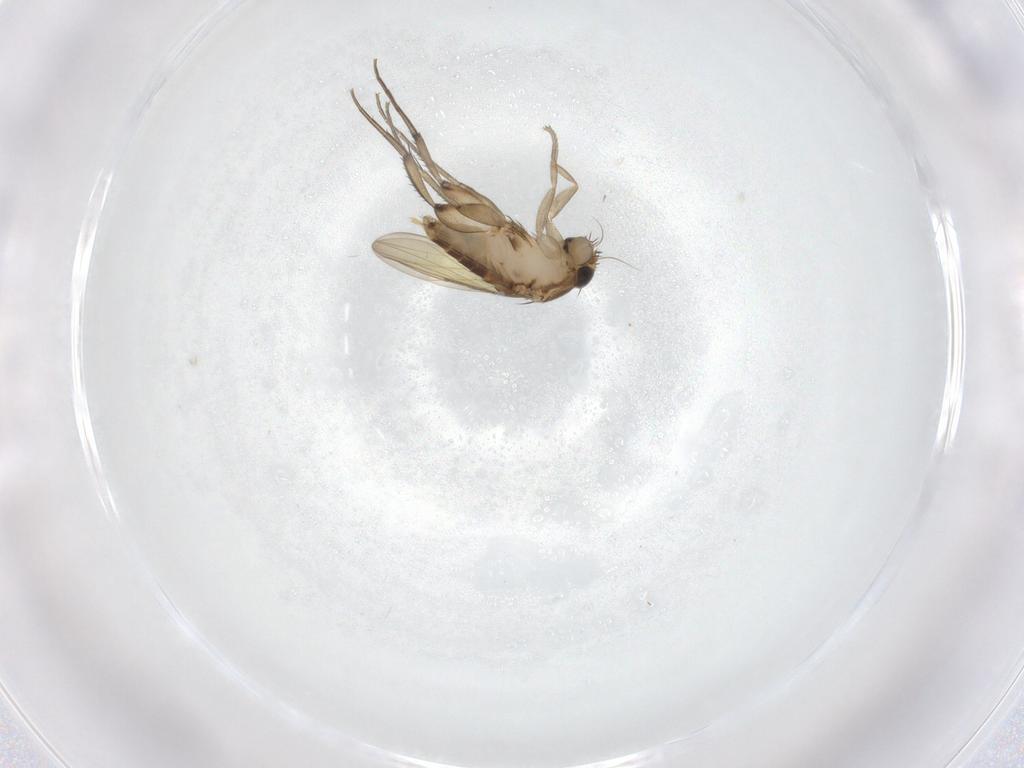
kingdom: Animalia
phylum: Arthropoda
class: Insecta
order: Diptera
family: Phoridae
